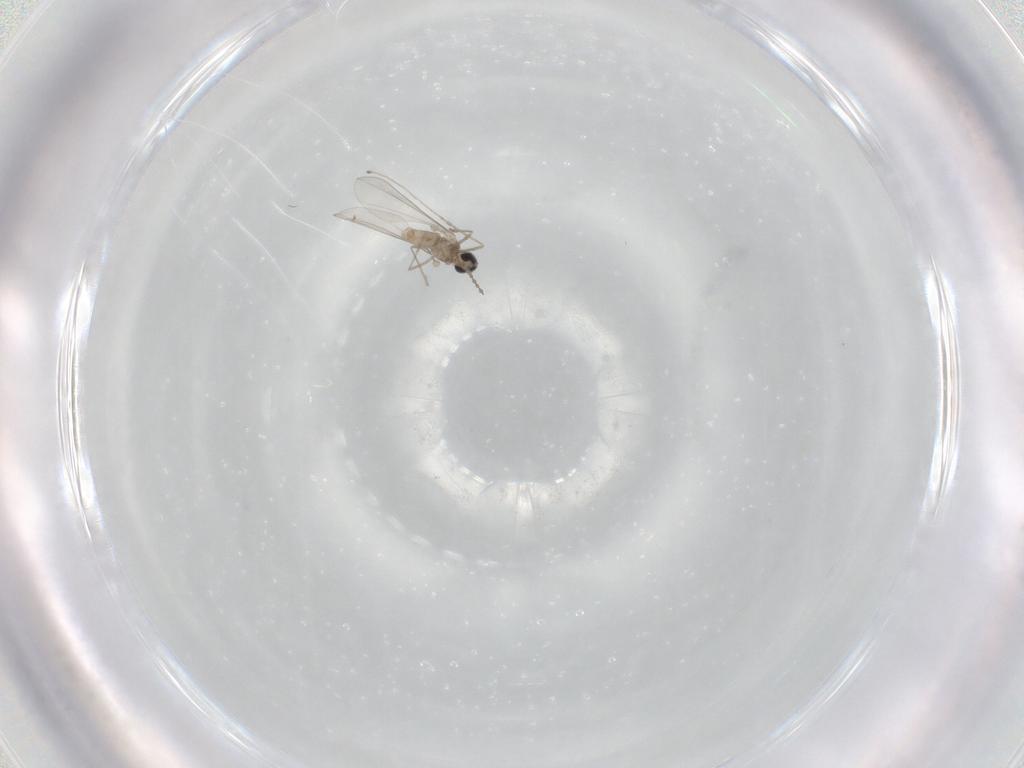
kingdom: Animalia
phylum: Arthropoda
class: Insecta
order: Diptera
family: Cecidomyiidae
